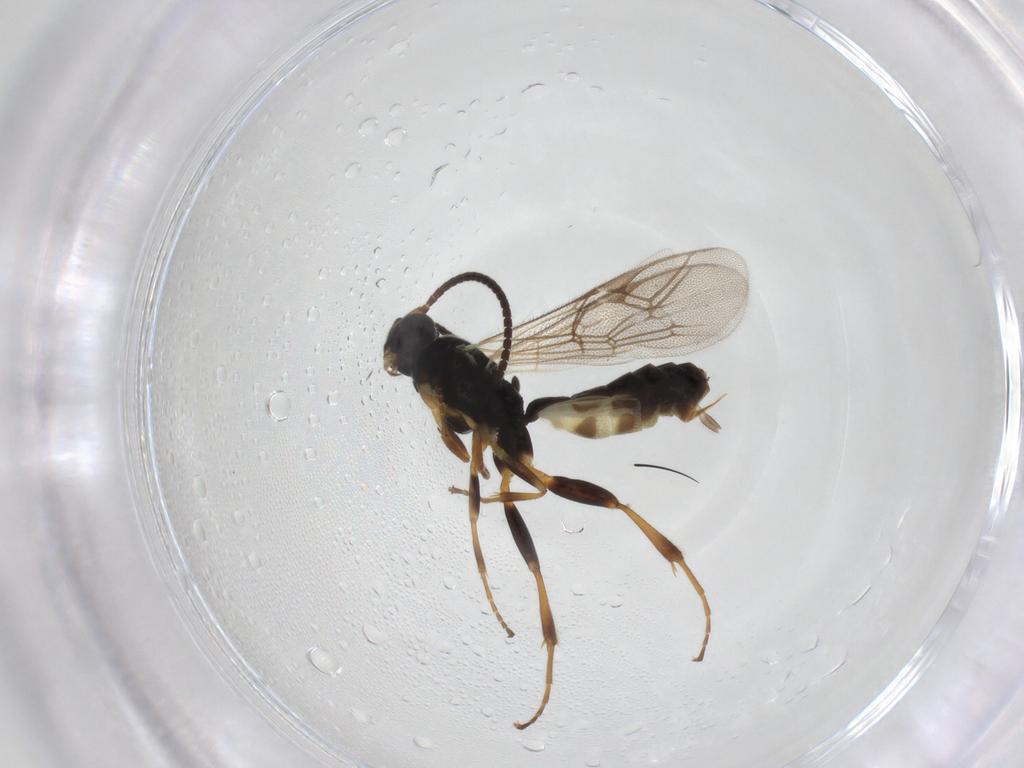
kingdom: Animalia
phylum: Arthropoda
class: Insecta
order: Hymenoptera
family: Ichneumonidae
